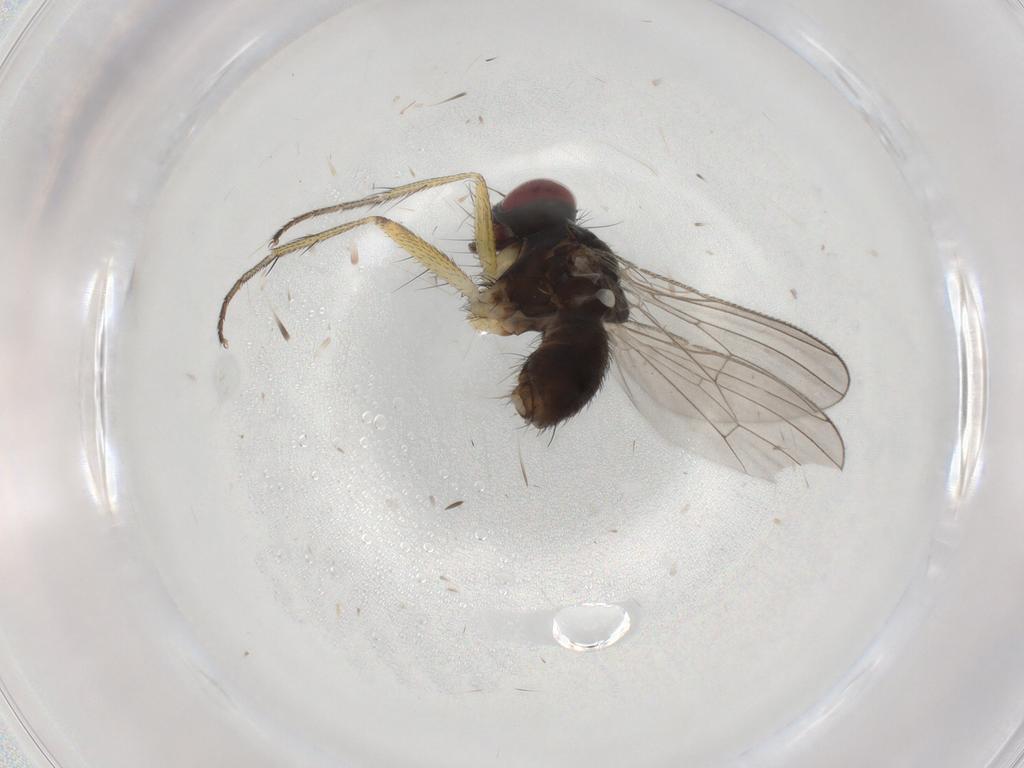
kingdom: Animalia
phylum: Arthropoda
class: Insecta
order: Diptera
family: Muscidae
